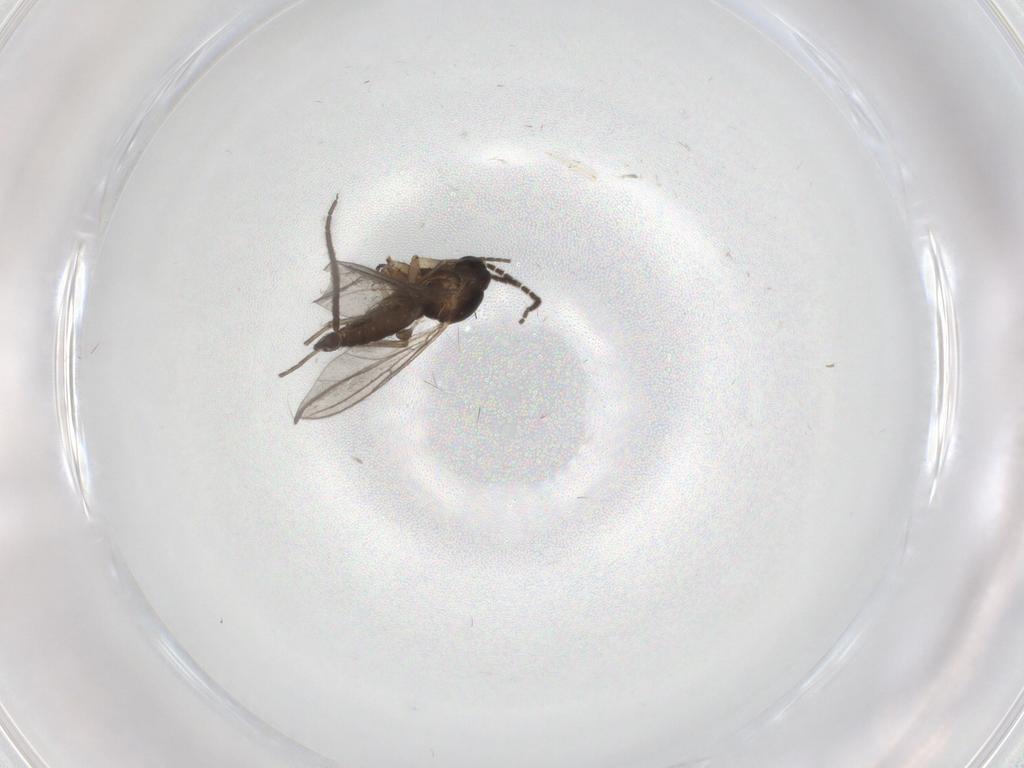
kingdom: Animalia
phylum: Arthropoda
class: Insecta
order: Diptera
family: Sciaridae
